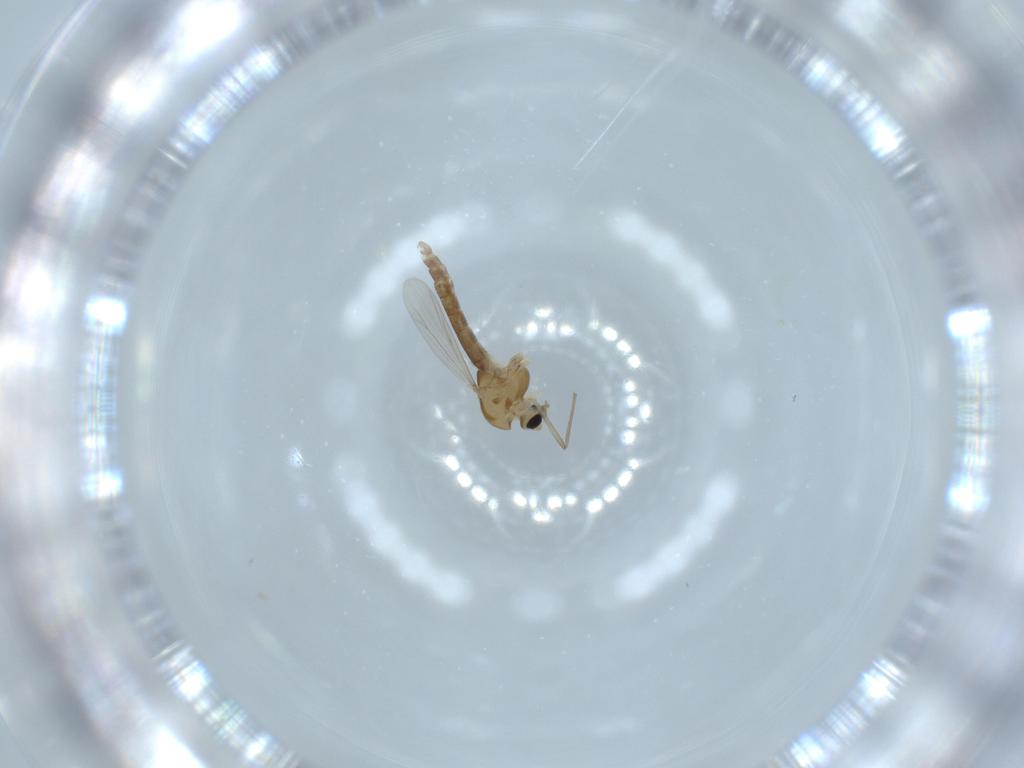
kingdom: Animalia
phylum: Arthropoda
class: Insecta
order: Diptera
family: Chironomidae
